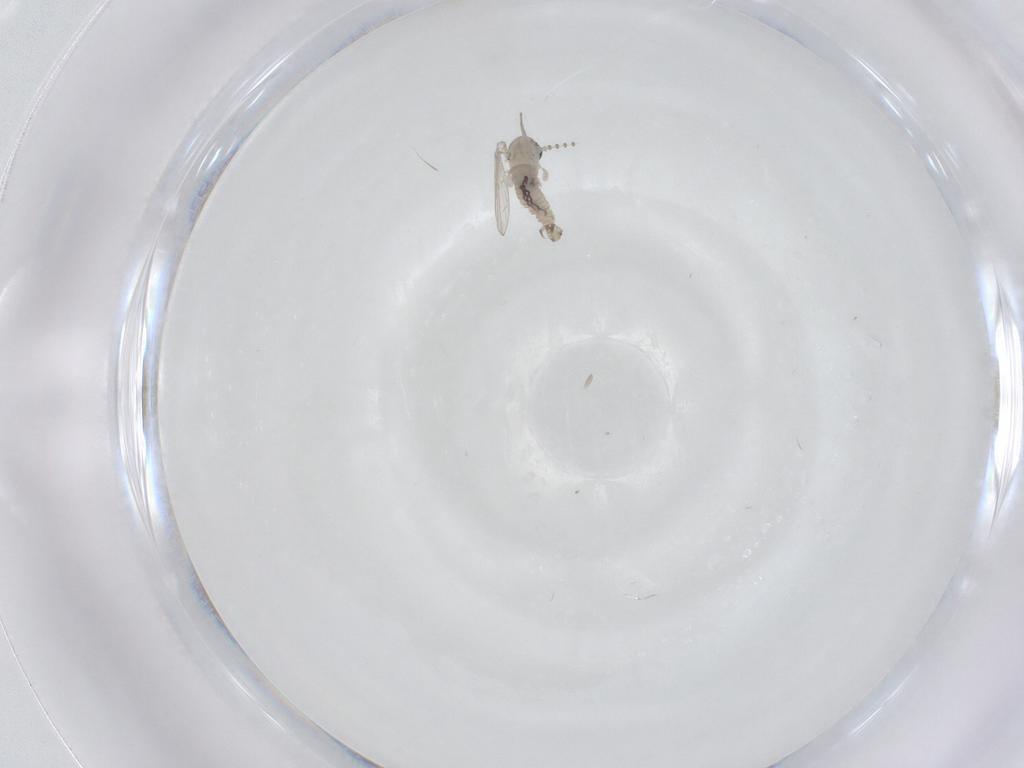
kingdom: Animalia
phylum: Arthropoda
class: Insecta
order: Diptera
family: Psychodidae
